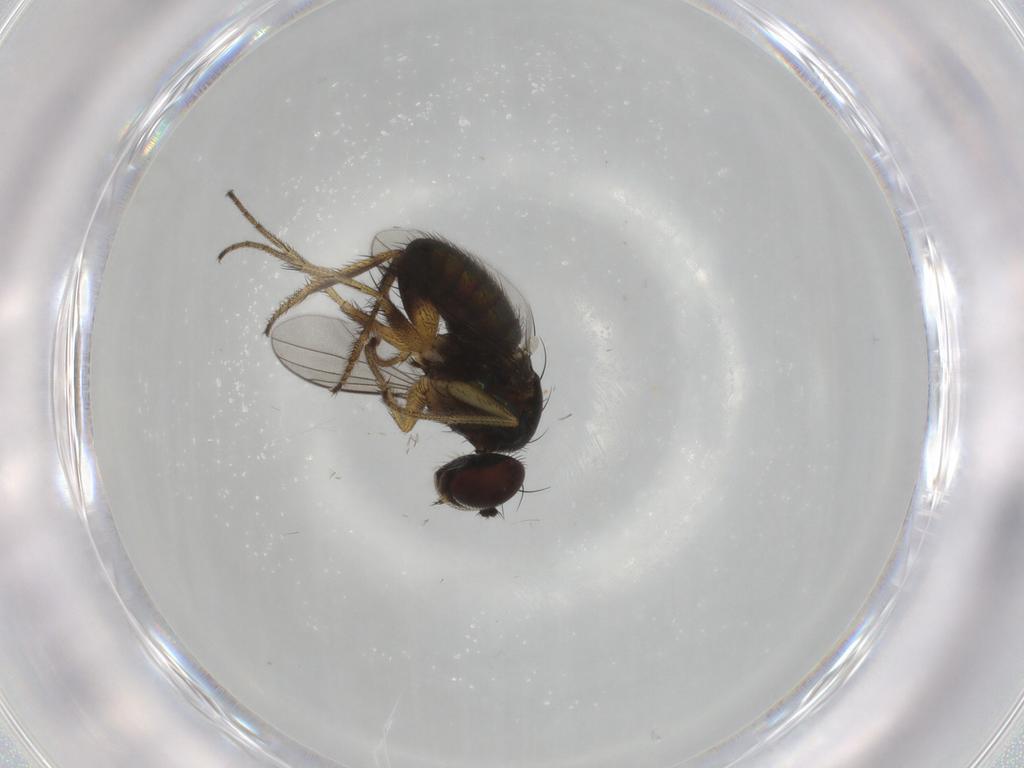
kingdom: Animalia
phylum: Arthropoda
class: Insecta
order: Diptera
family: Dolichopodidae
